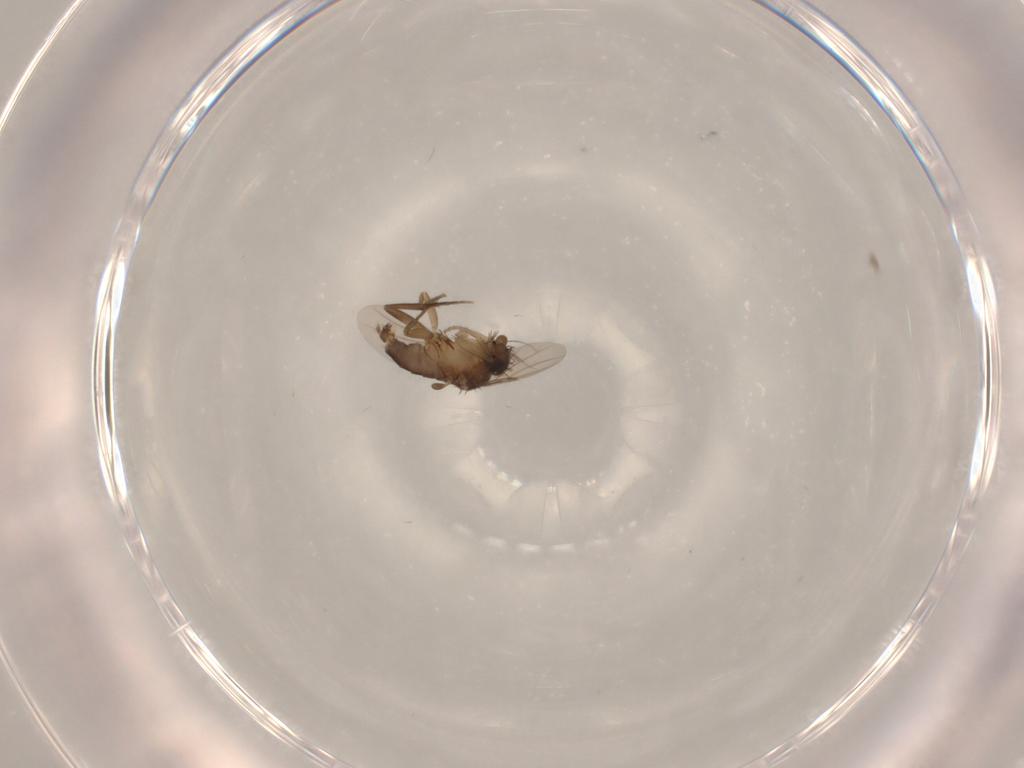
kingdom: Animalia
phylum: Arthropoda
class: Insecta
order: Diptera
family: Phoridae
